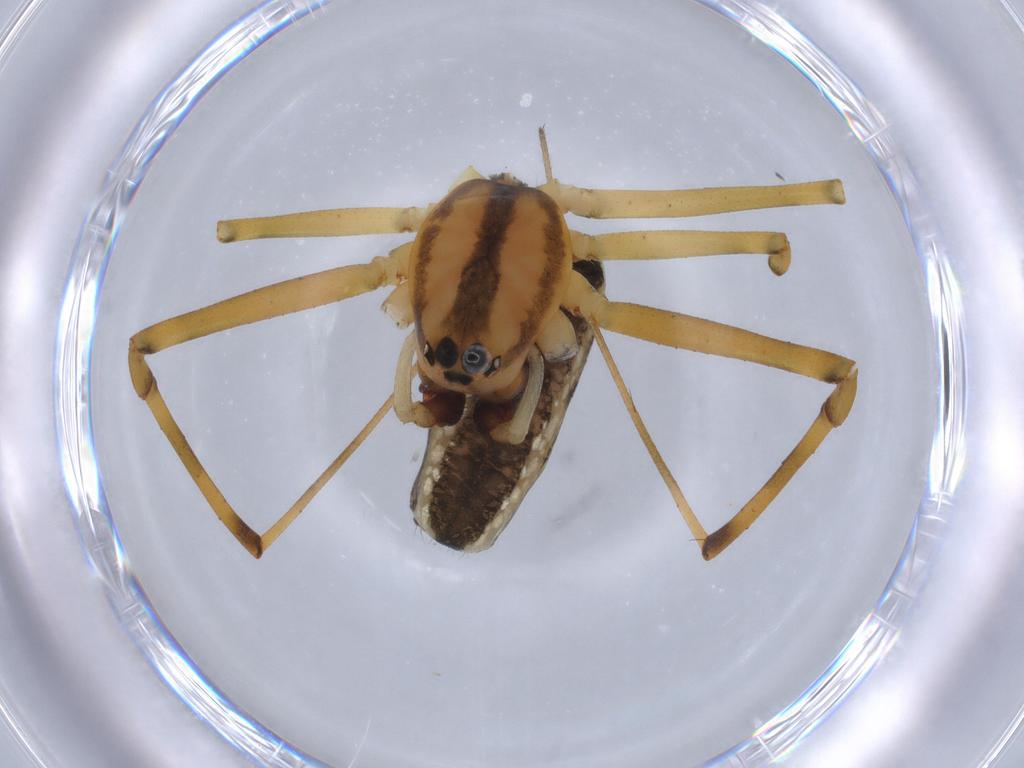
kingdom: Animalia
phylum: Arthropoda
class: Arachnida
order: Araneae
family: Linyphiidae
